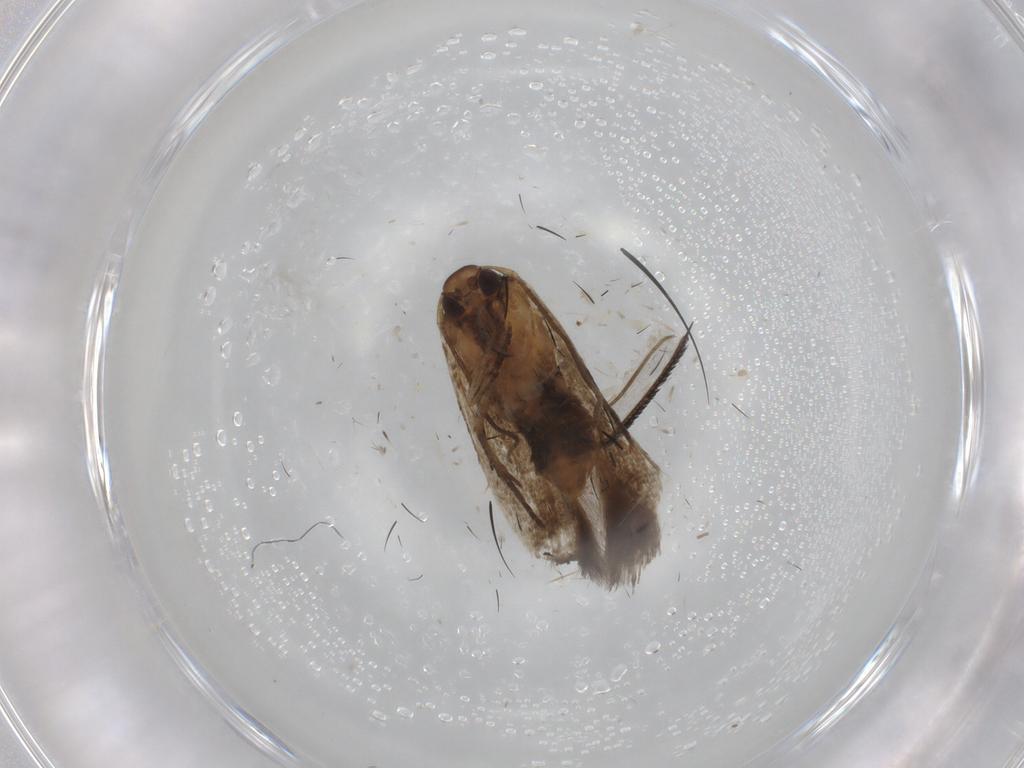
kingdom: Animalia
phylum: Arthropoda
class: Insecta
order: Lepidoptera
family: Cosmopterigidae
